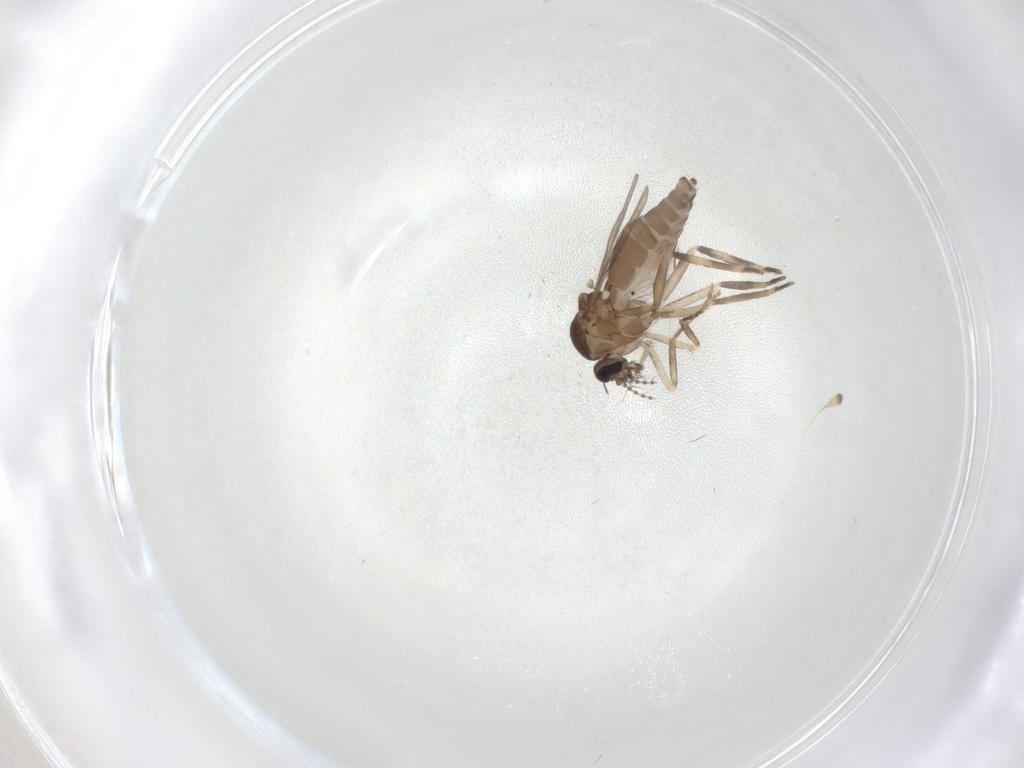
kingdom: Animalia
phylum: Arthropoda
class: Insecta
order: Diptera
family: Ceratopogonidae
